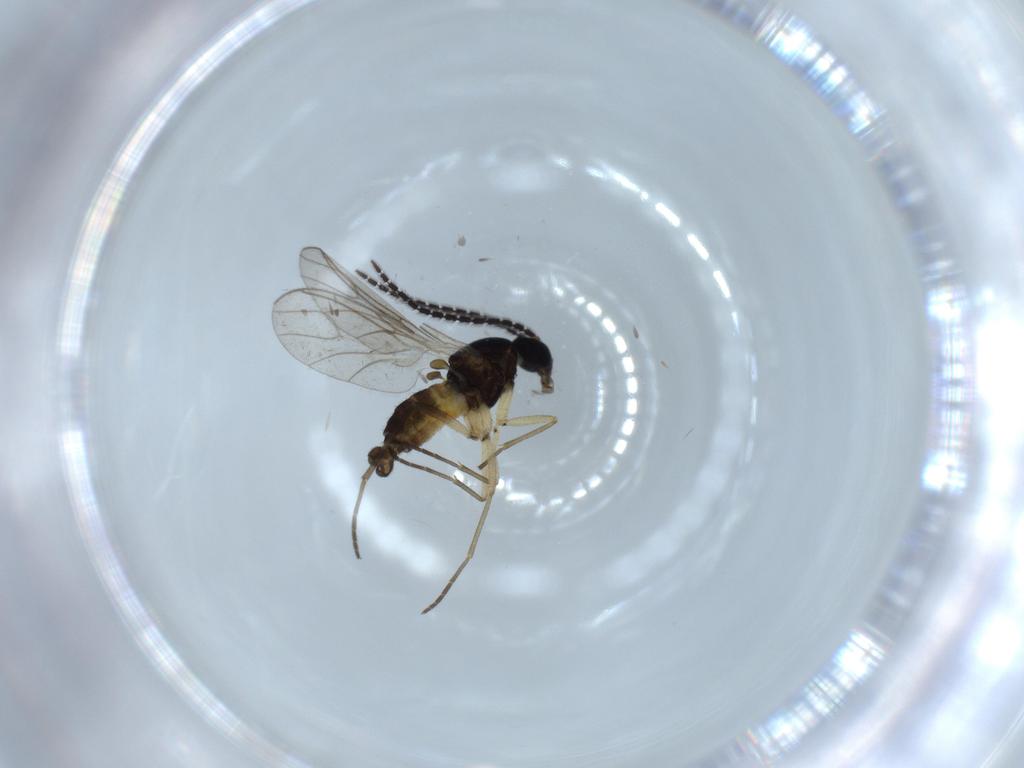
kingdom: Animalia
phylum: Arthropoda
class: Insecta
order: Diptera
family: Sciaridae
